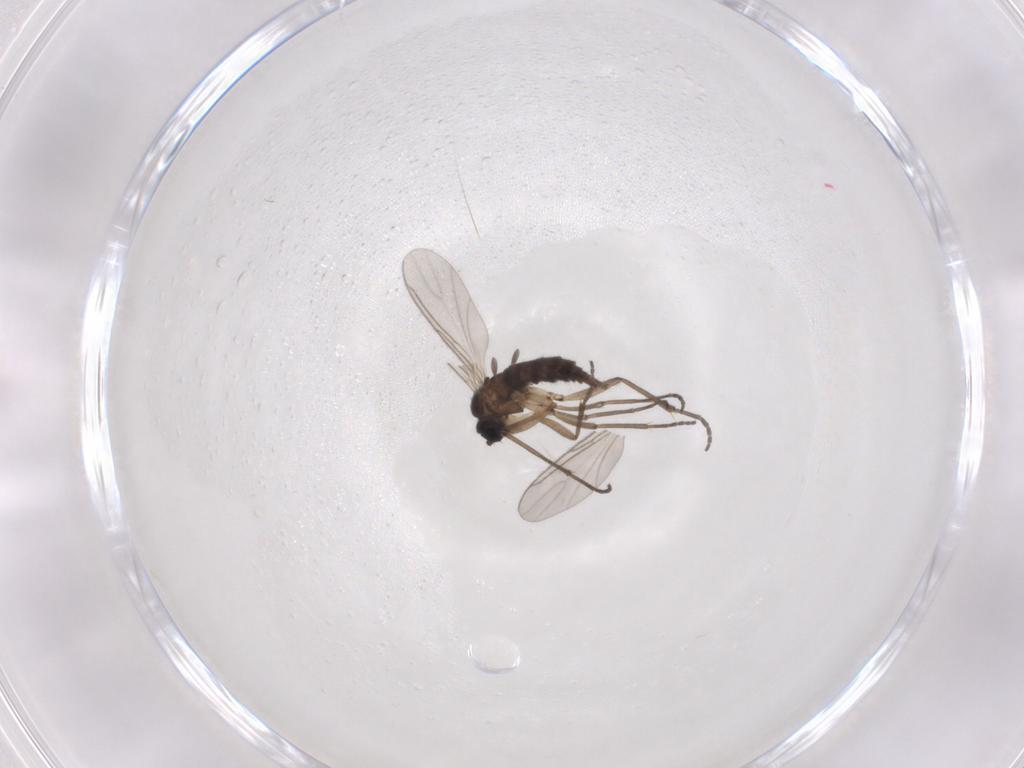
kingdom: Animalia
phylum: Arthropoda
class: Insecta
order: Diptera
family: Sciaridae
